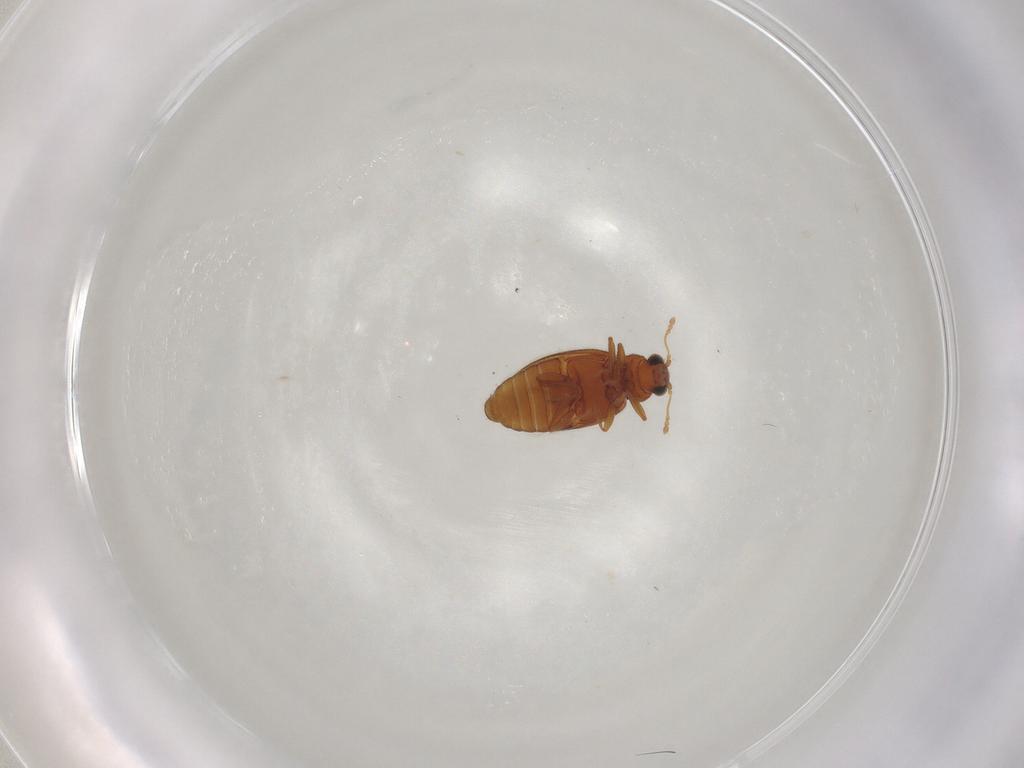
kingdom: Animalia
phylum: Arthropoda
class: Insecta
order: Coleoptera
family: Latridiidae
